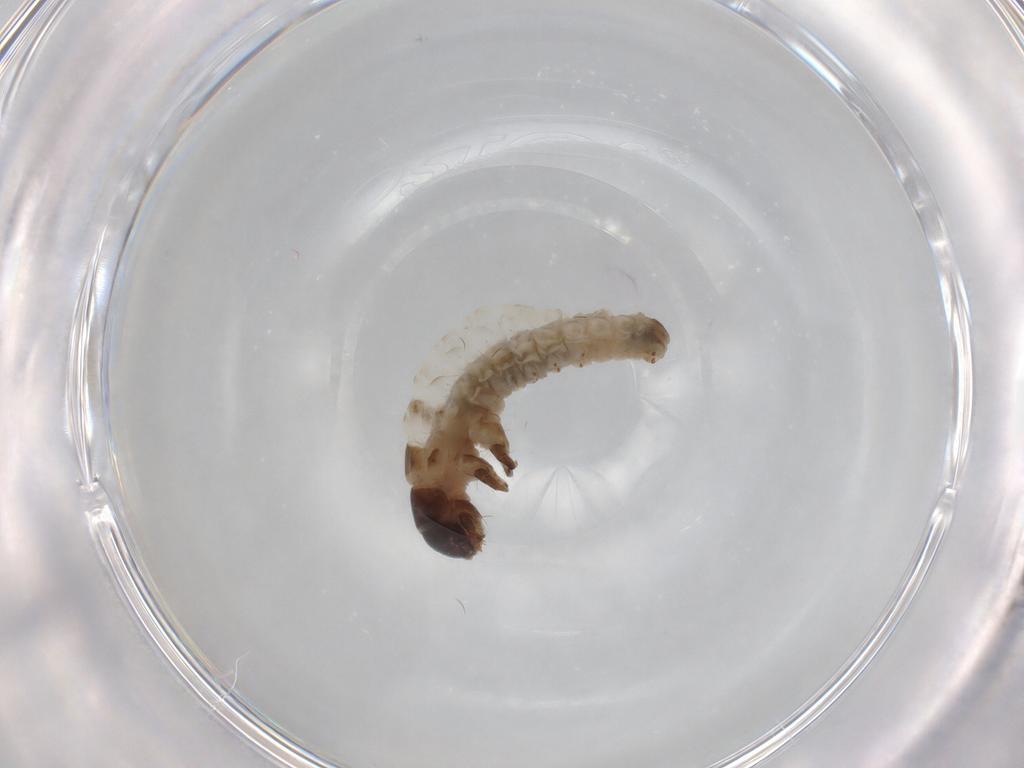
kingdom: Animalia
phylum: Arthropoda
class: Insecta
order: Lepidoptera
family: Psychidae
